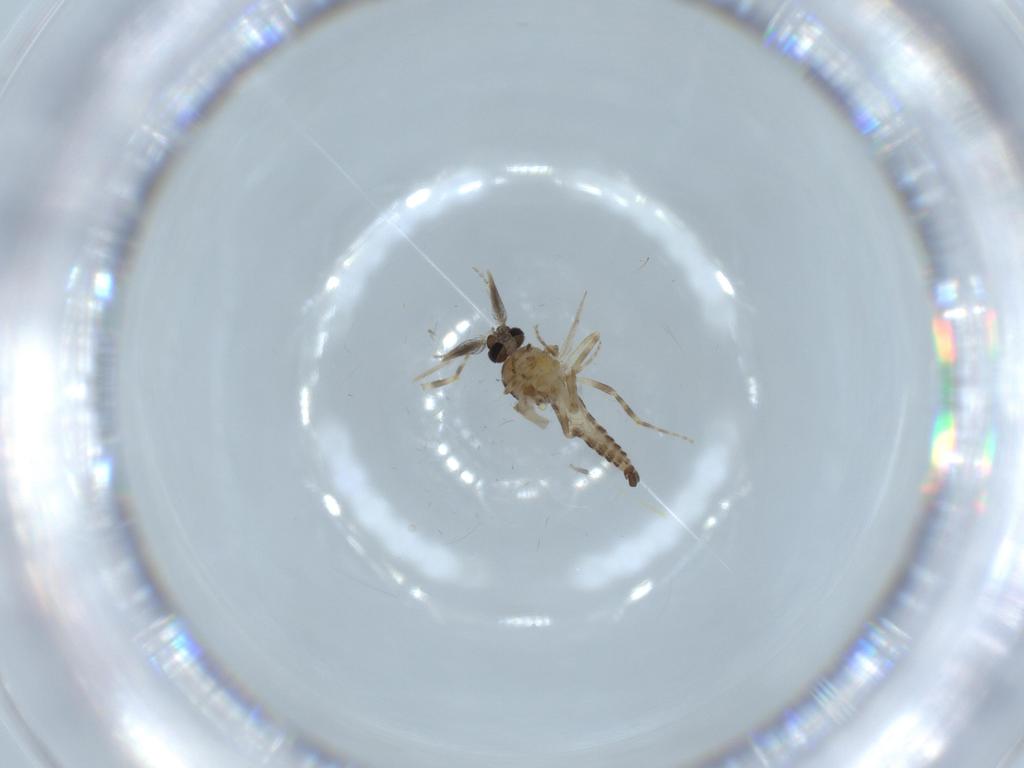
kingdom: Animalia
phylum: Arthropoda
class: Insecta
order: Diptera
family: Ceratopogonidae
